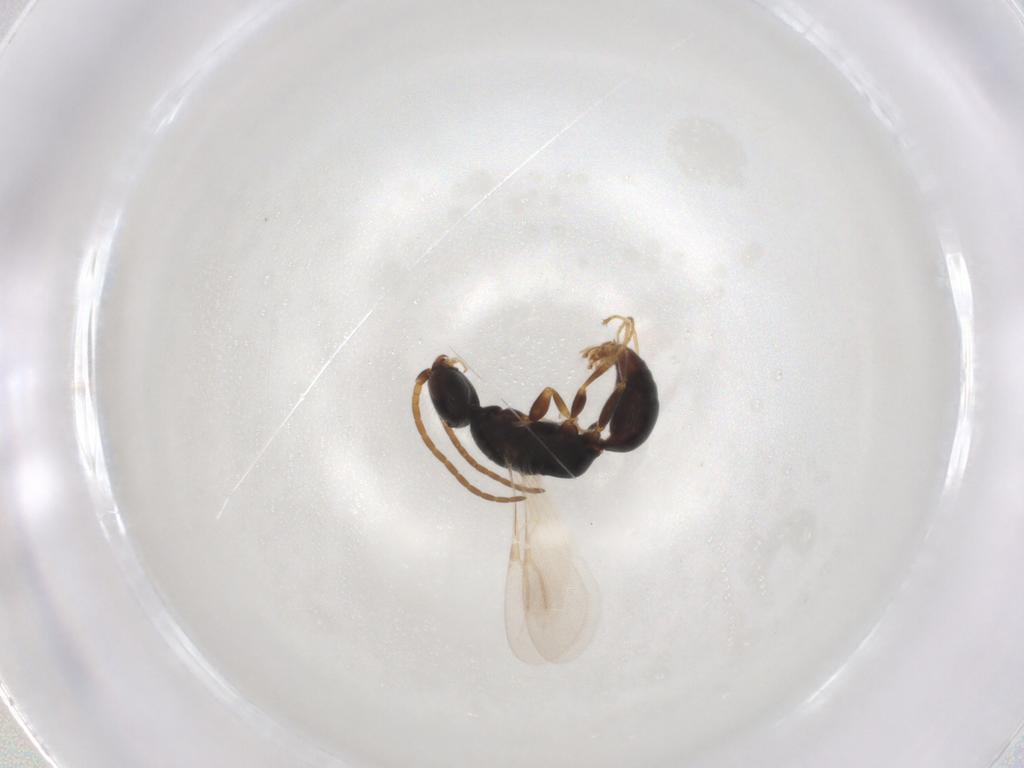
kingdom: Animalia
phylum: Arthropoda
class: Insecta
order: Hymenoptera
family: Bethylidae
